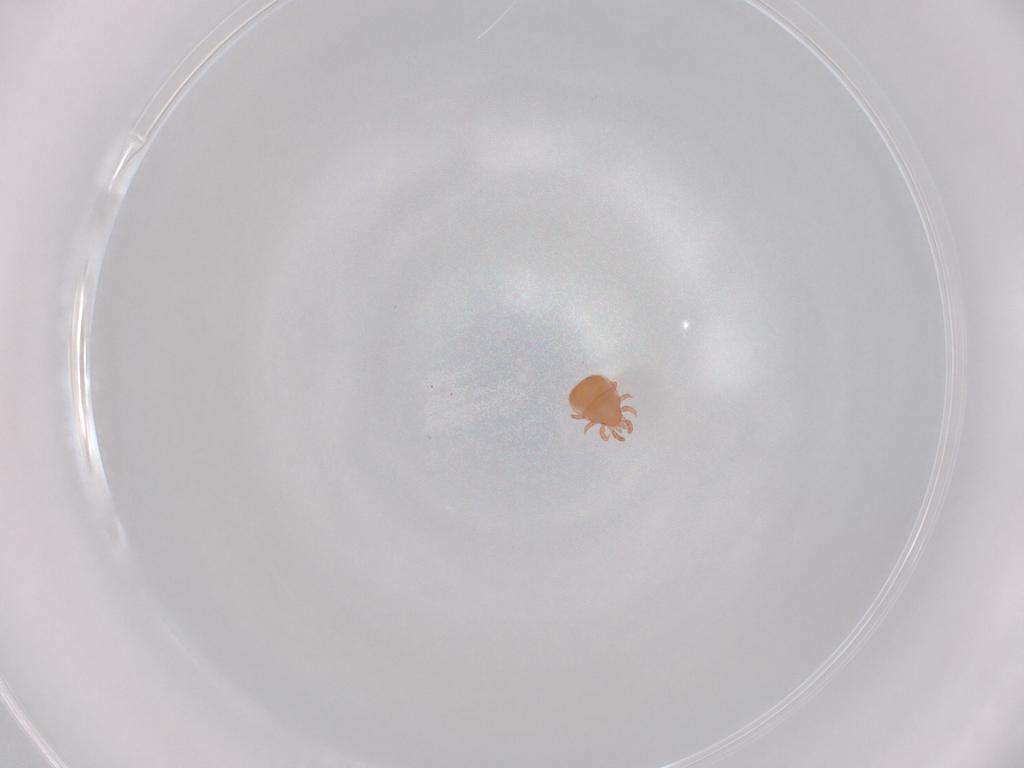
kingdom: Animalia
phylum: Arthropoda
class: Arachnida
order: Mesostigmata
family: Zerconidae
